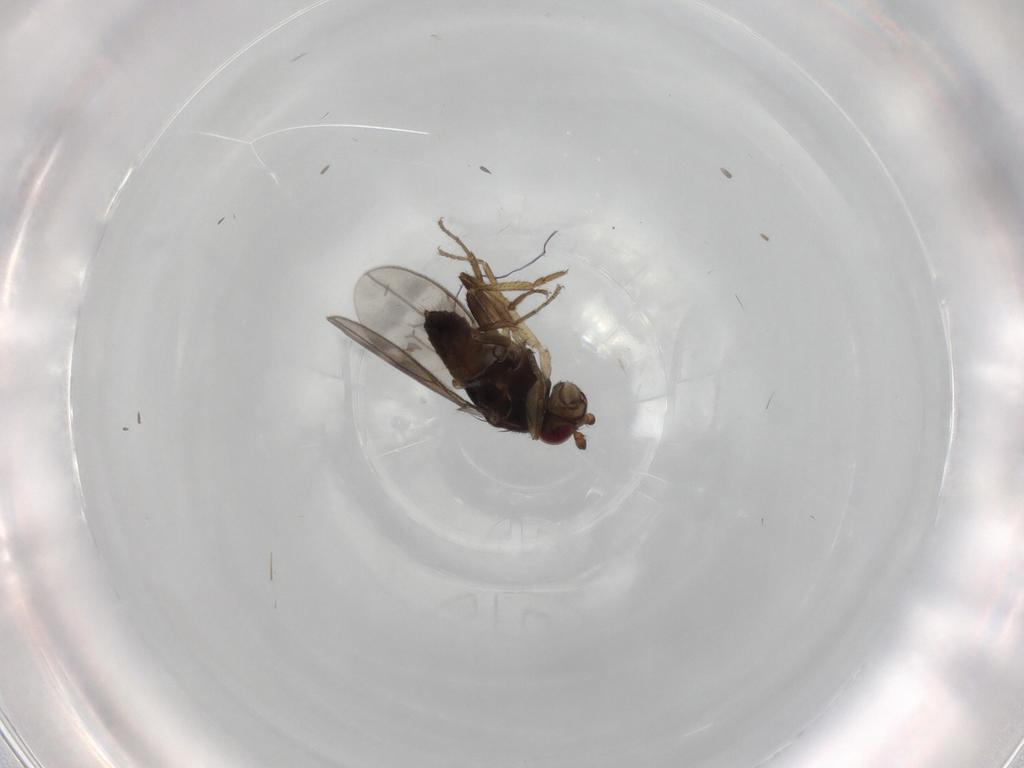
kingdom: Animalia
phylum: Arthropoda
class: Insecta
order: Diptera
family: Sphaeroceridae
